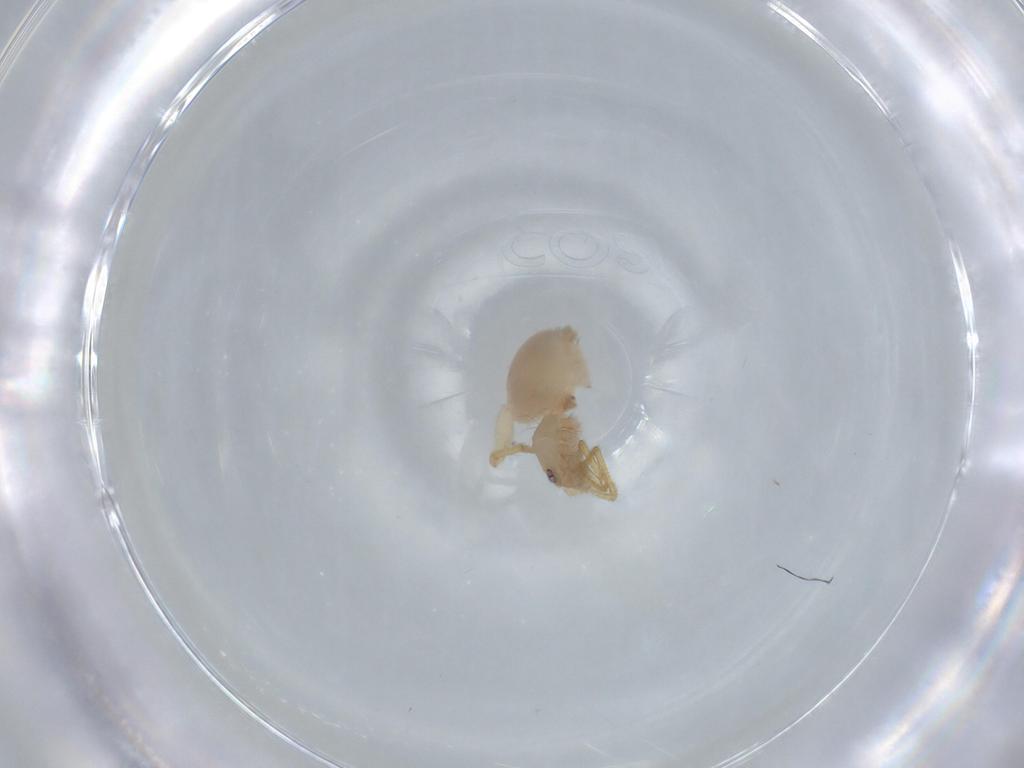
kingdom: Animalia
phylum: Arthropoda
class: Arachnida
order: Araneae
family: Oonopidae
